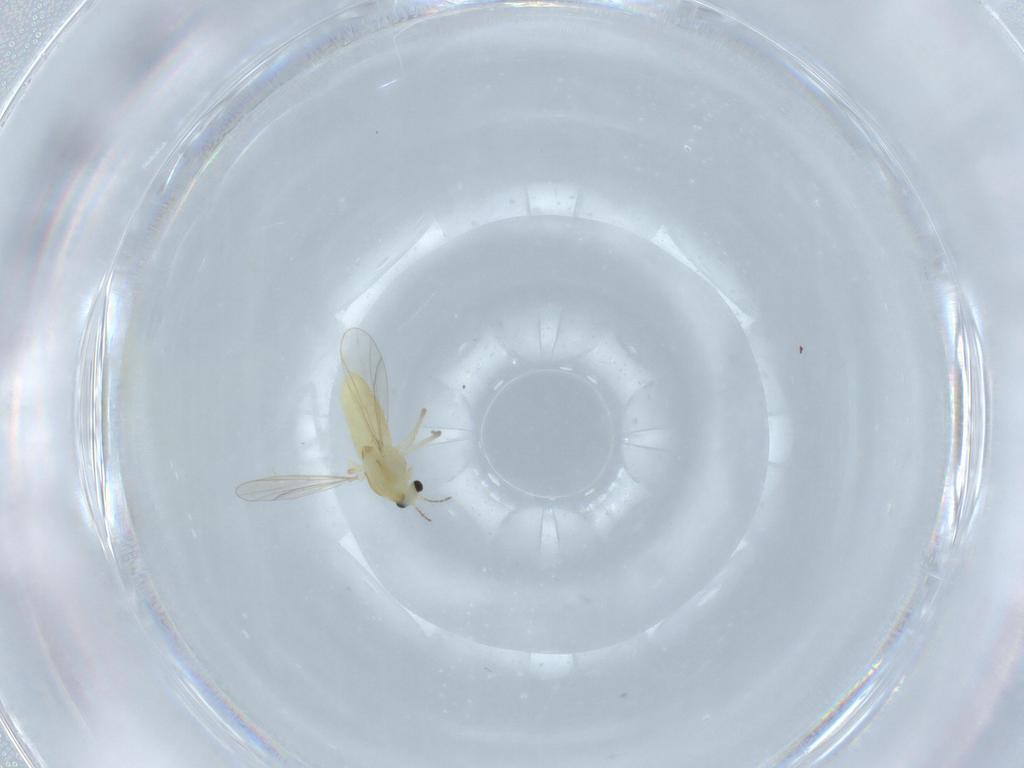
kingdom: Animalia
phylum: Arthropoda
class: Insecta
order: Diptera
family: Chironomidae
